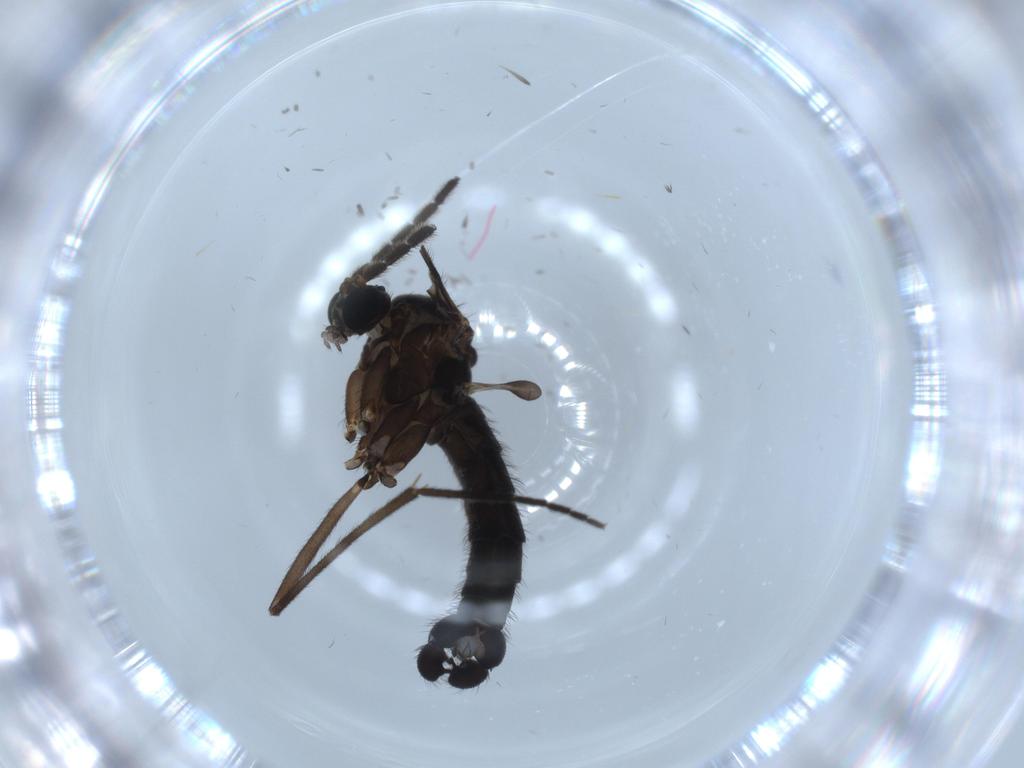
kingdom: Animalia
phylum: Arthropoda
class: Insecta
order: Diptera
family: Sciaridae
